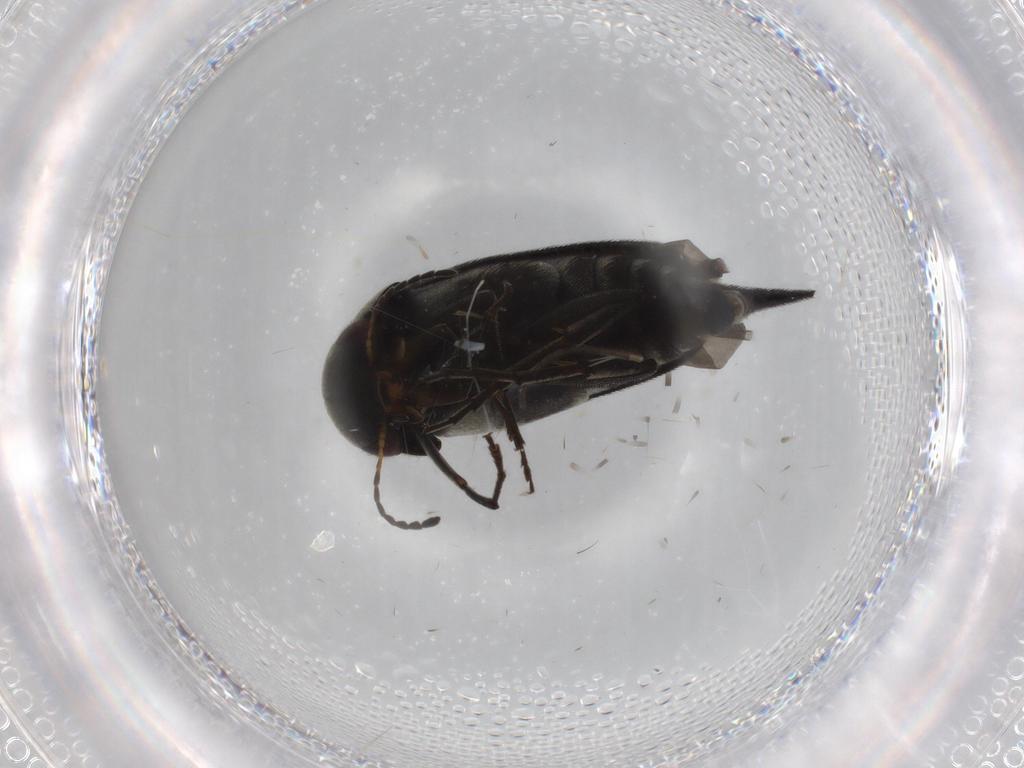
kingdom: Animalia
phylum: Arthropoda
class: Insecta
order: Coleoptera
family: Mordellidae
